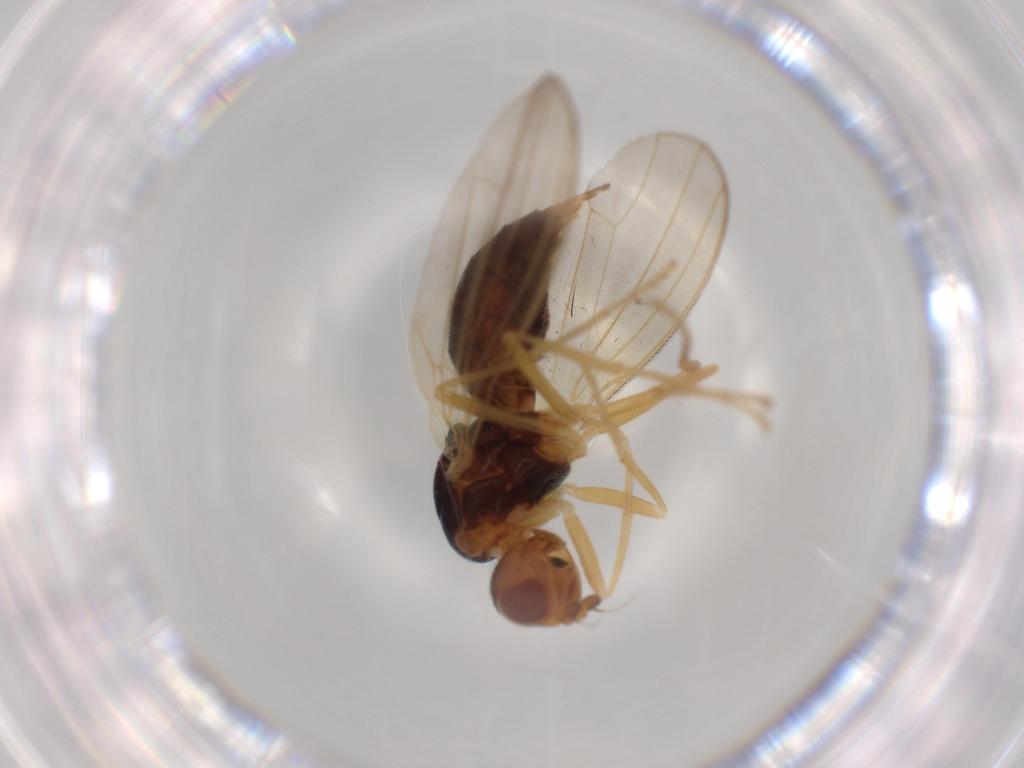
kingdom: Animalia
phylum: Arthropoda
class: Insecta
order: Diptera
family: Psilidae
